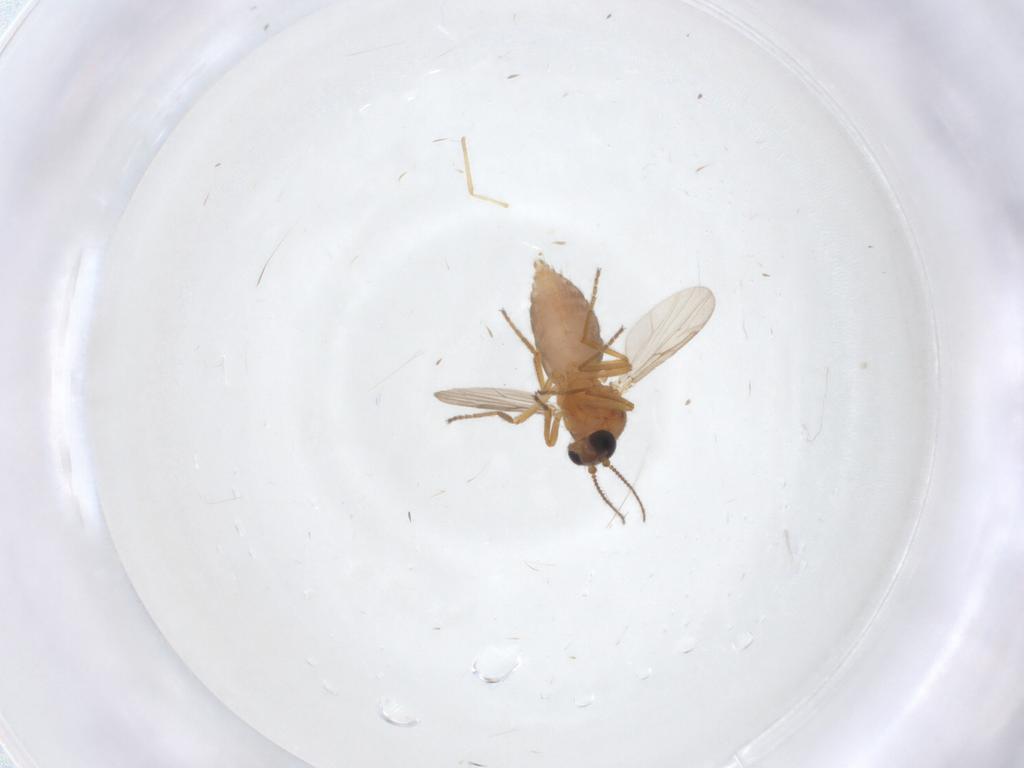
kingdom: Animalia
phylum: Arthropoda
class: Insecta
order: Diptera
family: Ceratopogonidae
